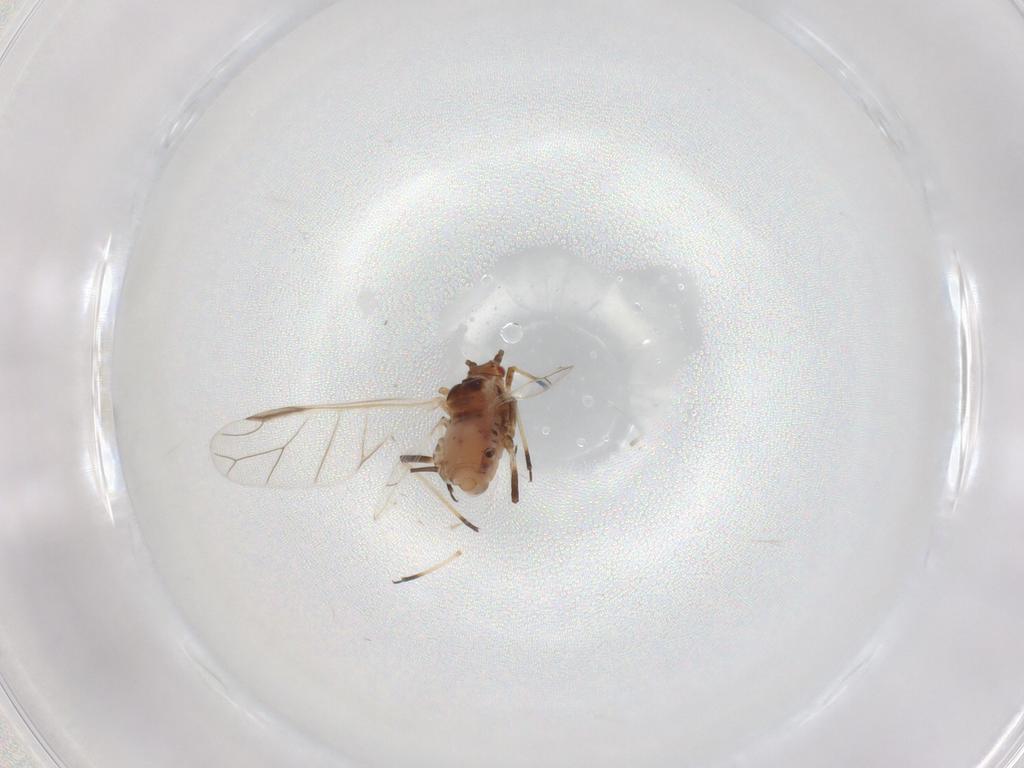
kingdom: Animalia
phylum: Arthropoda
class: Insecta
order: Hemiptera
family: Aphididae
